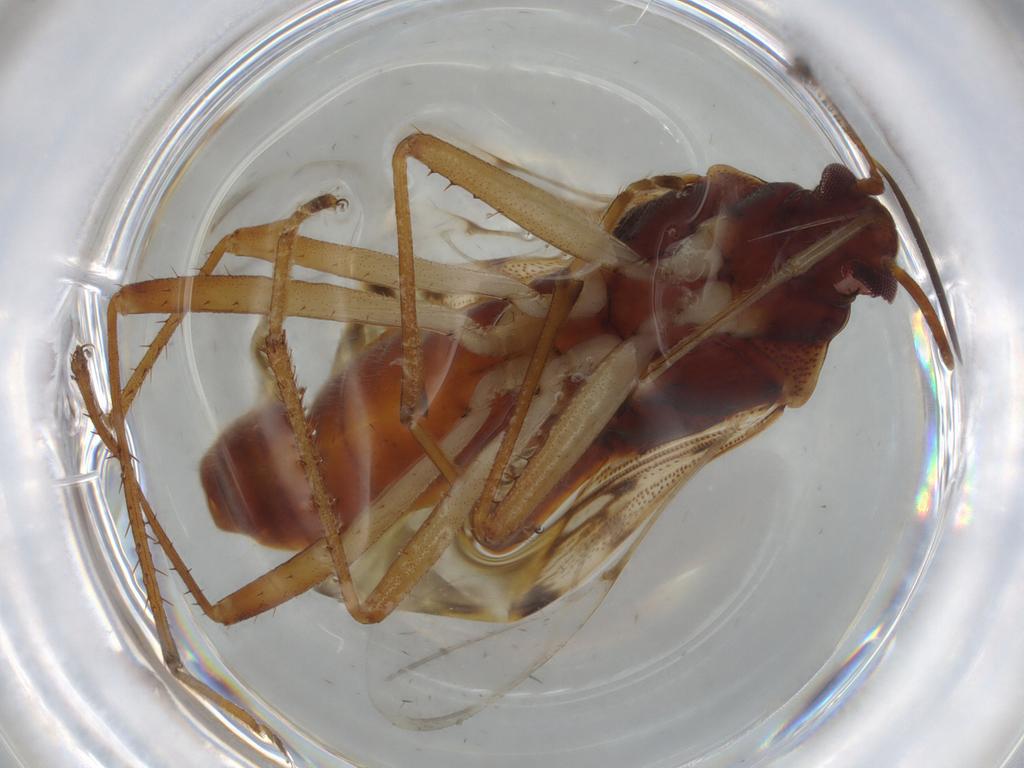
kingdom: Animalia
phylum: Arthropoda
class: Insecta
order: Hemiptera
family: Rhyparochromidae
